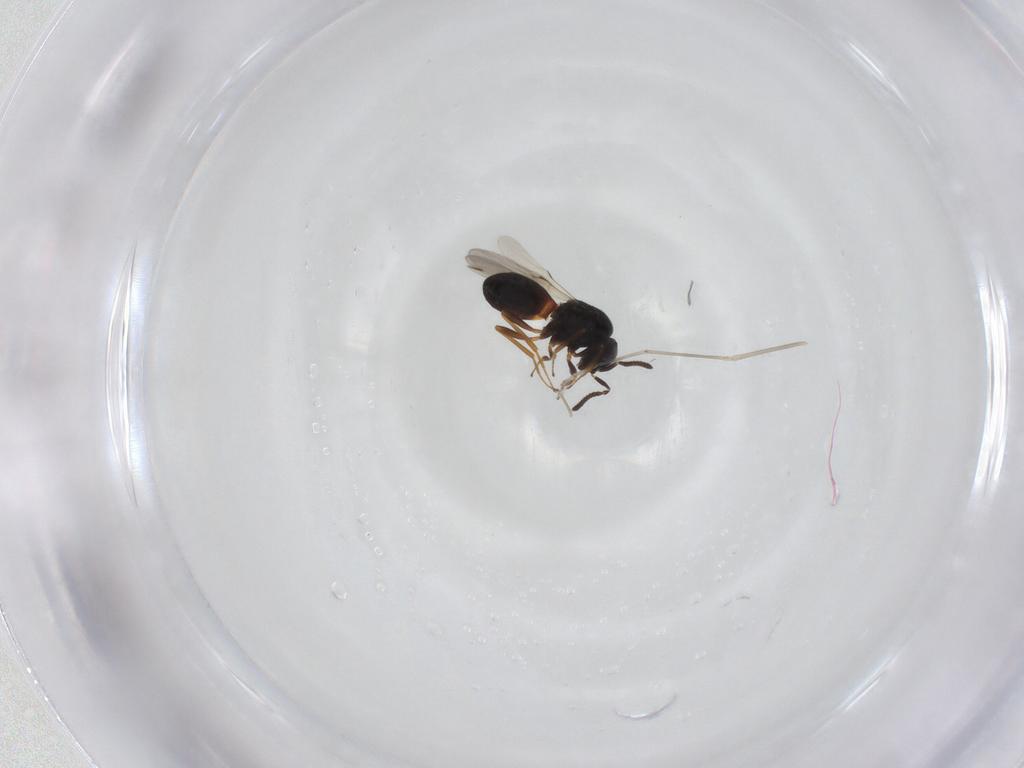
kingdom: Animalia
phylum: Arthropoda
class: Insecta
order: Hymenoptera
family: Scelionidae
